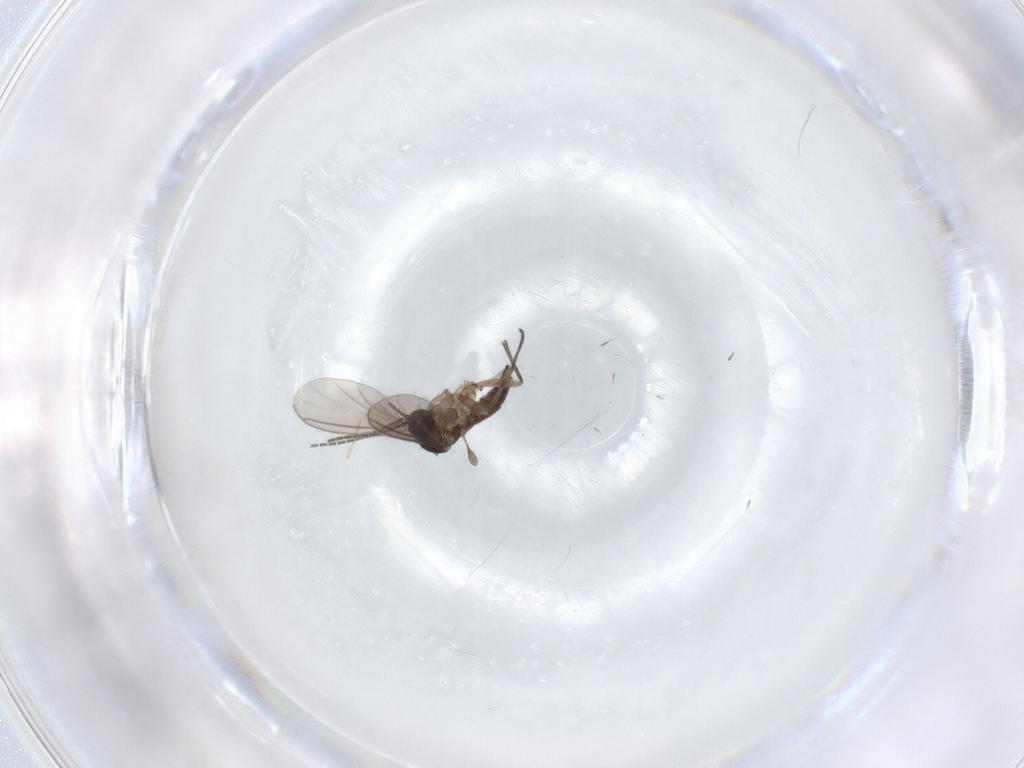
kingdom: Animalia
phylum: Arthropoda
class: Insecta
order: Diptera
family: Sciaridae
